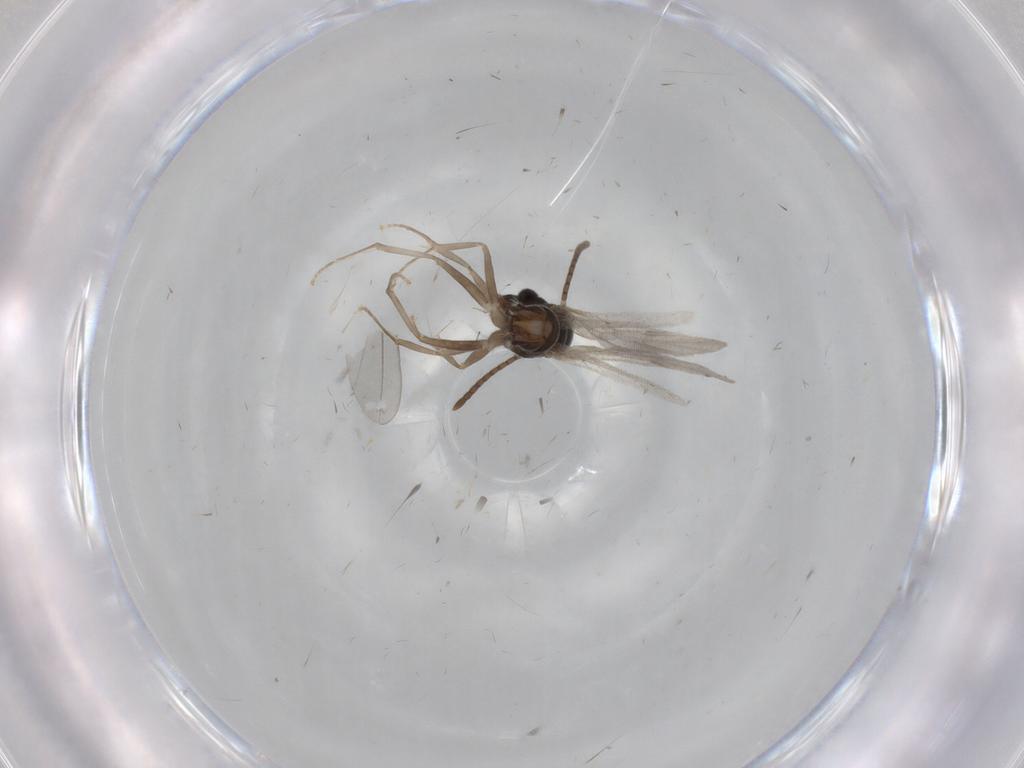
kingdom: Animalia
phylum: Arthropoda
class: Insecta
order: Hymenoptera
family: Formicidae
